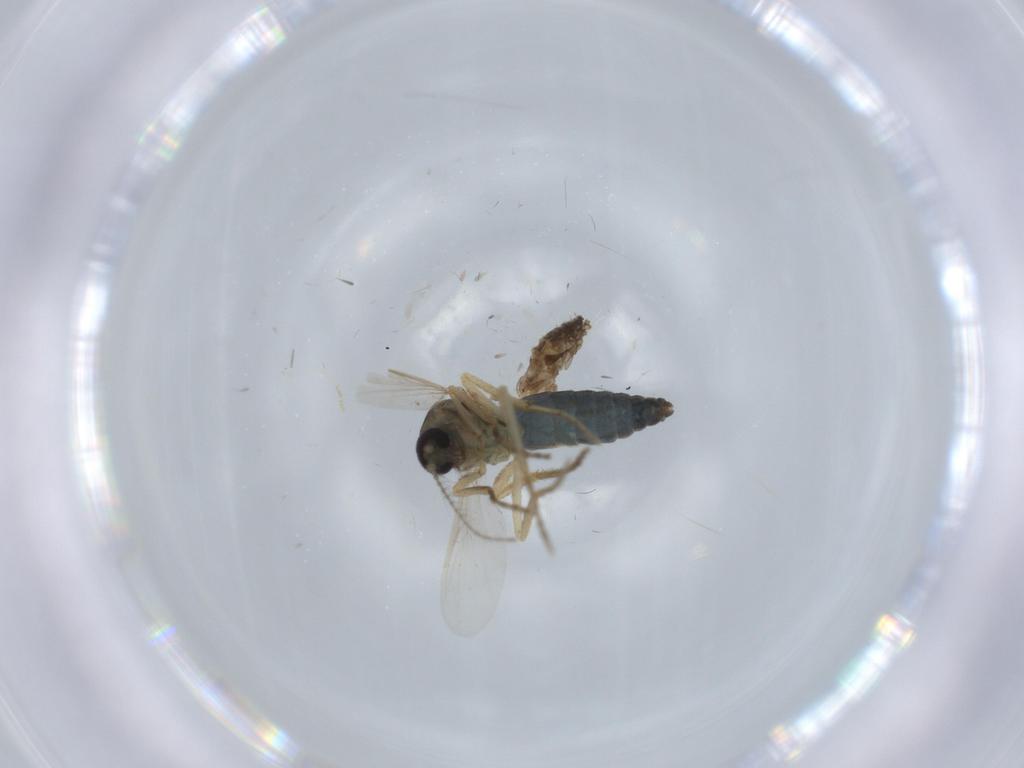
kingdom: Animalia
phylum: Arthropoda
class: Insecta
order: Diptera
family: Ceratopogonidae
